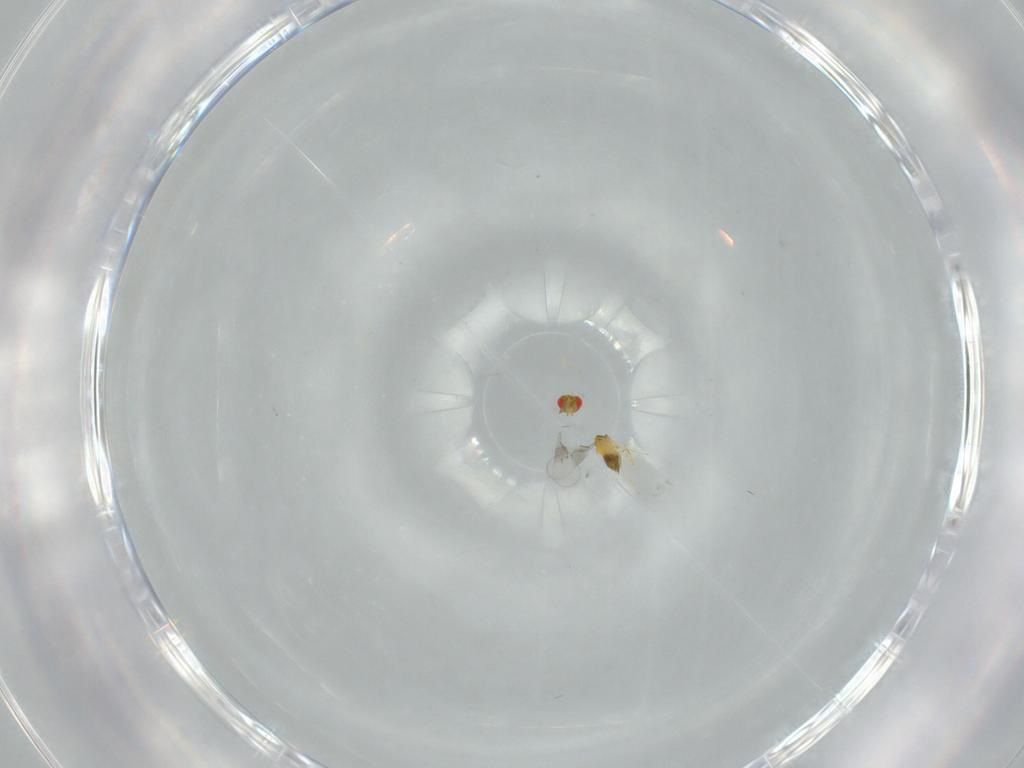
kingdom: Animalia
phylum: Arthropoda
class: Insecta
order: Hymenoptera
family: Trichogrammatidae
